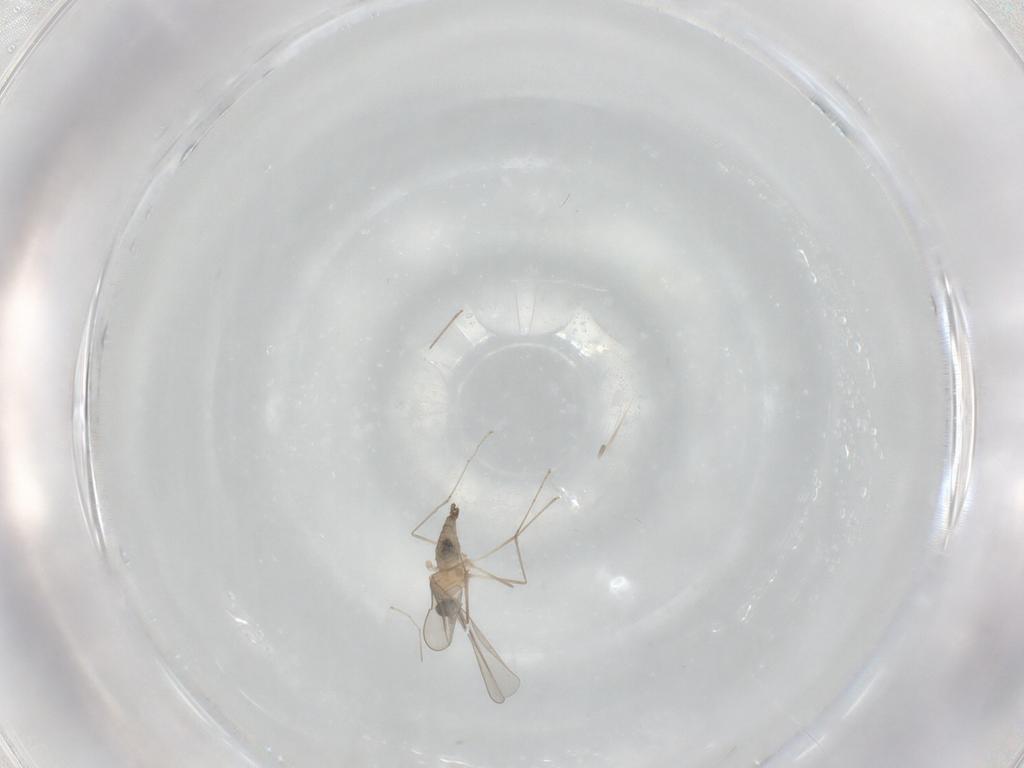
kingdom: Animalia
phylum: Arthropoda
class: Insecta
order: Diptera
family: Cecidomyiidae
